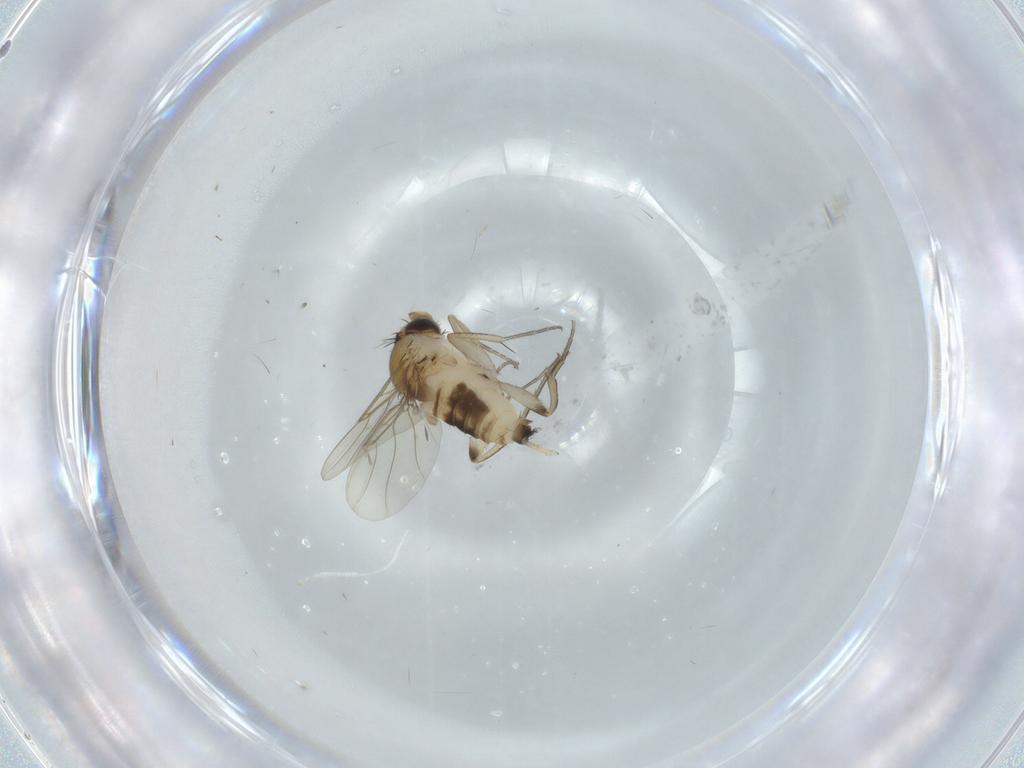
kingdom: Animalia
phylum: Arthropoda
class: Insecta
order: Diptera
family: Phoridae
